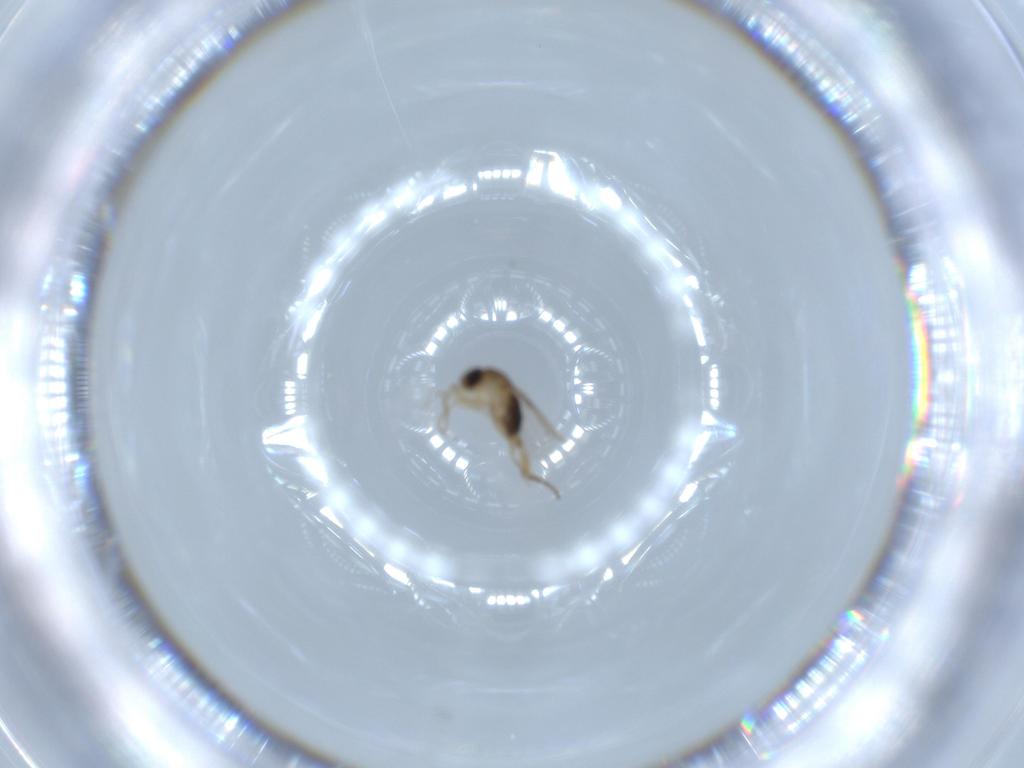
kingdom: Animalia
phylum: Arthropoda
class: Insecta
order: Diptera
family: Phoridae
